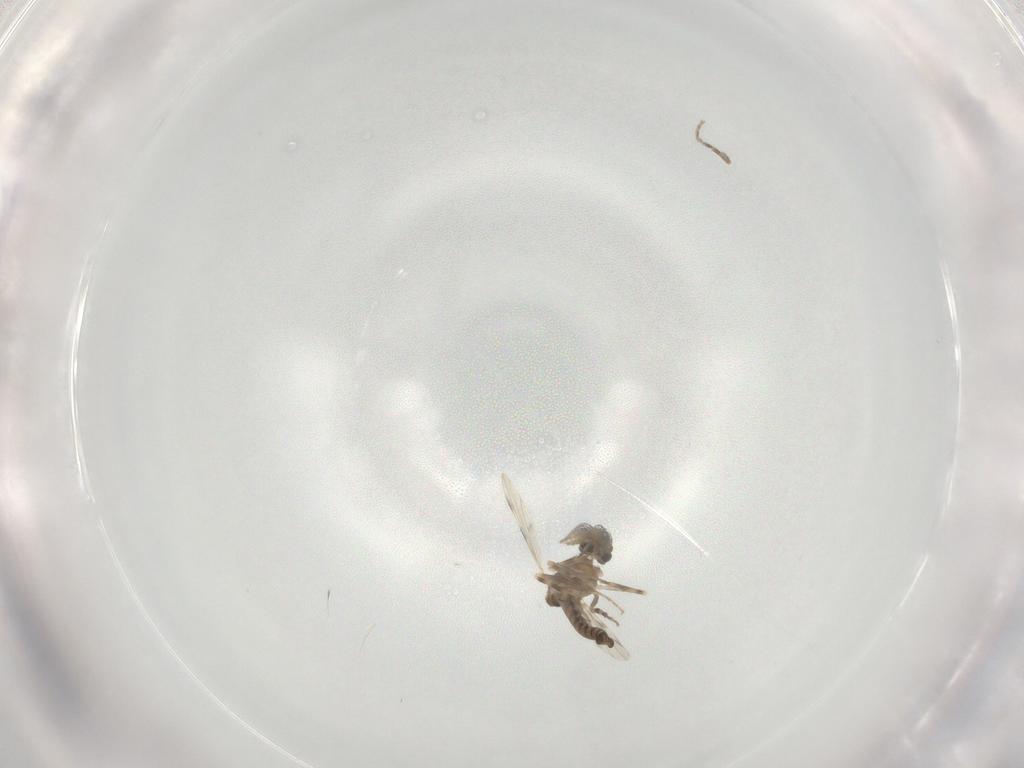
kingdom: Animalia
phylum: Arthropoda
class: Insecta
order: Diptera
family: Ceratopogonidae
